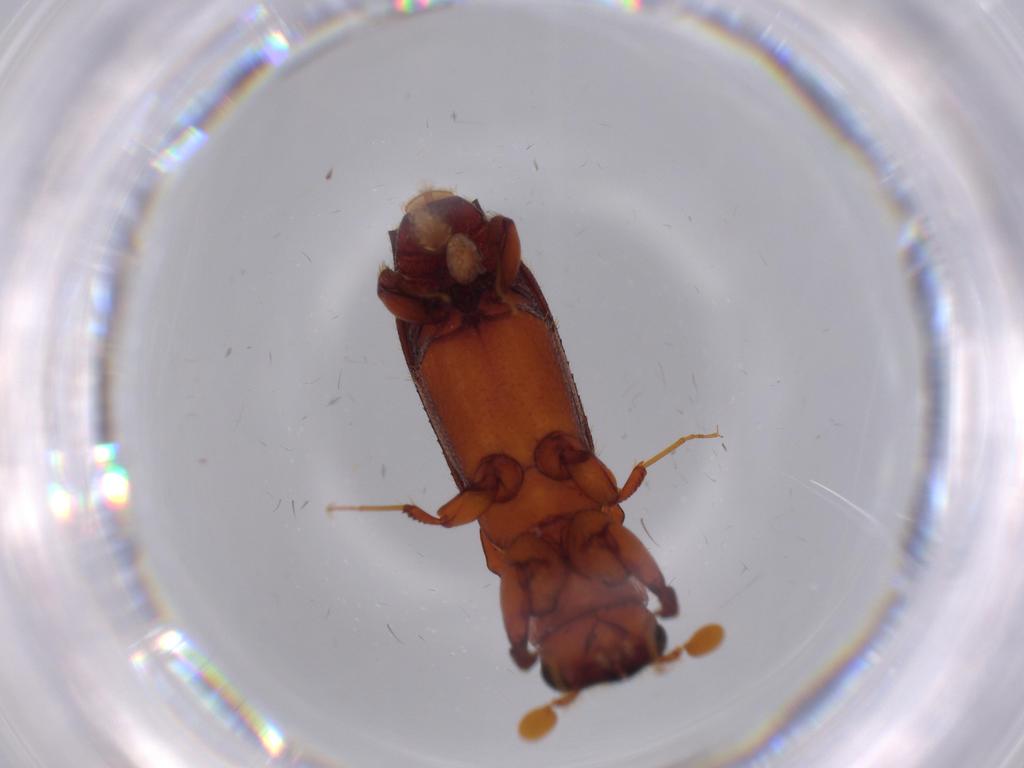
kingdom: Animalia
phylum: Arthropoda
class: Insecta
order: Coleoptera
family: Curculionidae
